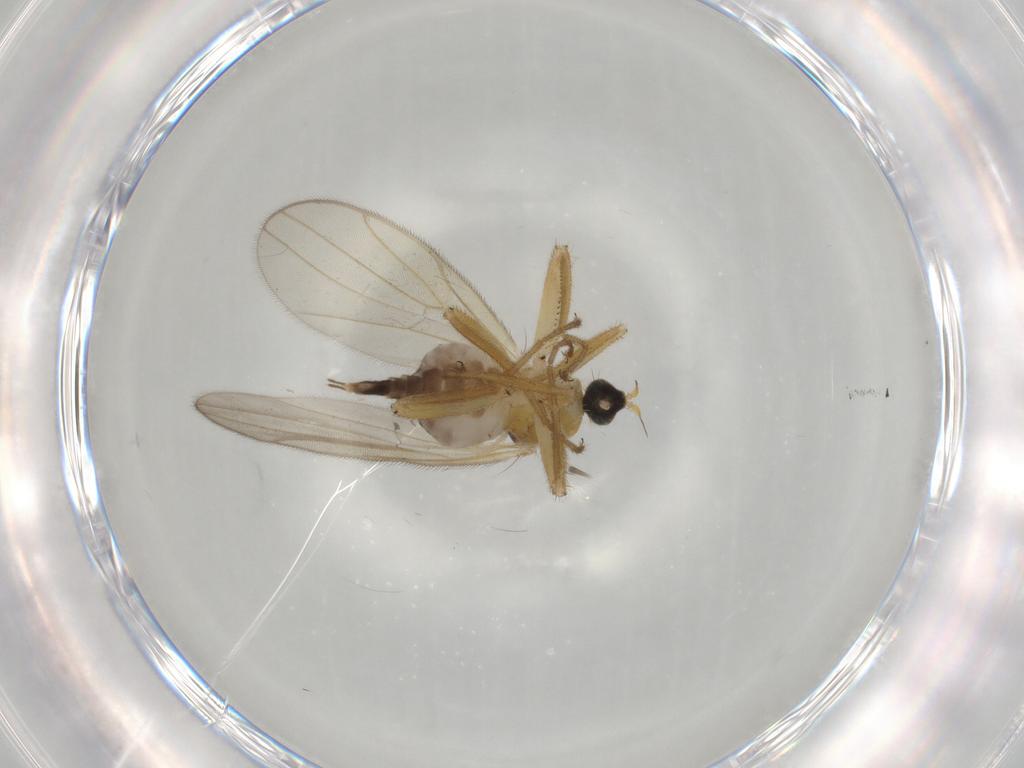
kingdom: Animalia
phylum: Arthropoda
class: Insecta
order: Diptera
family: Hybotidae
